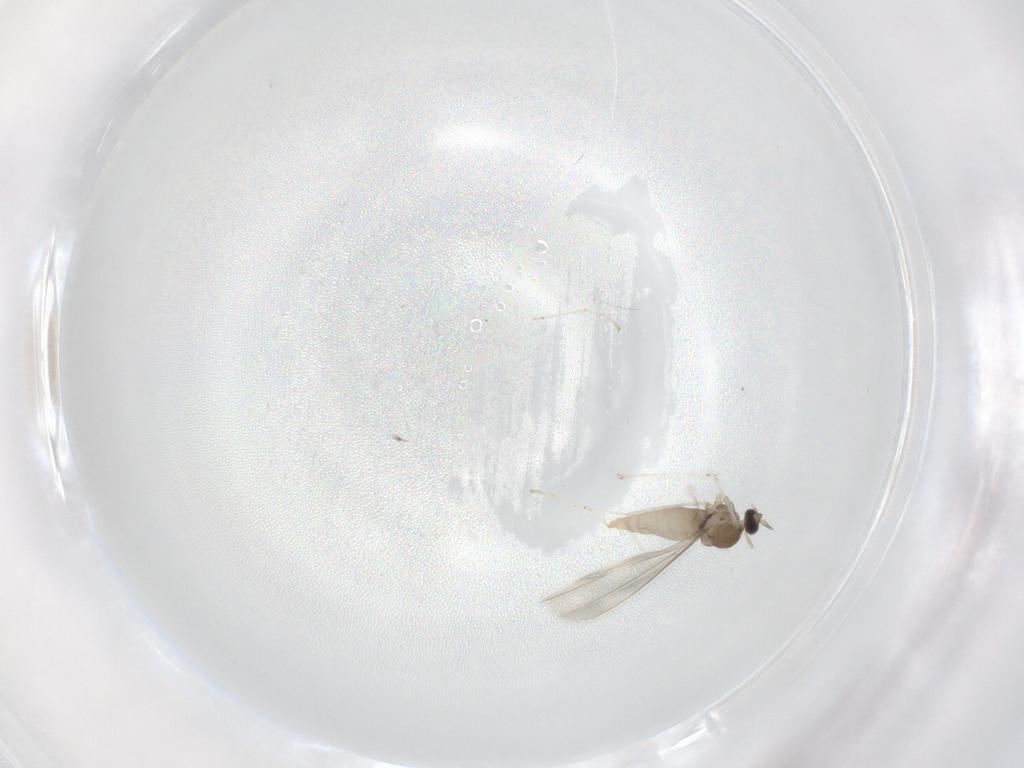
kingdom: Animalia
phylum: Arthropoda
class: Insecta
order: Diptera
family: Cecidomyiidae
